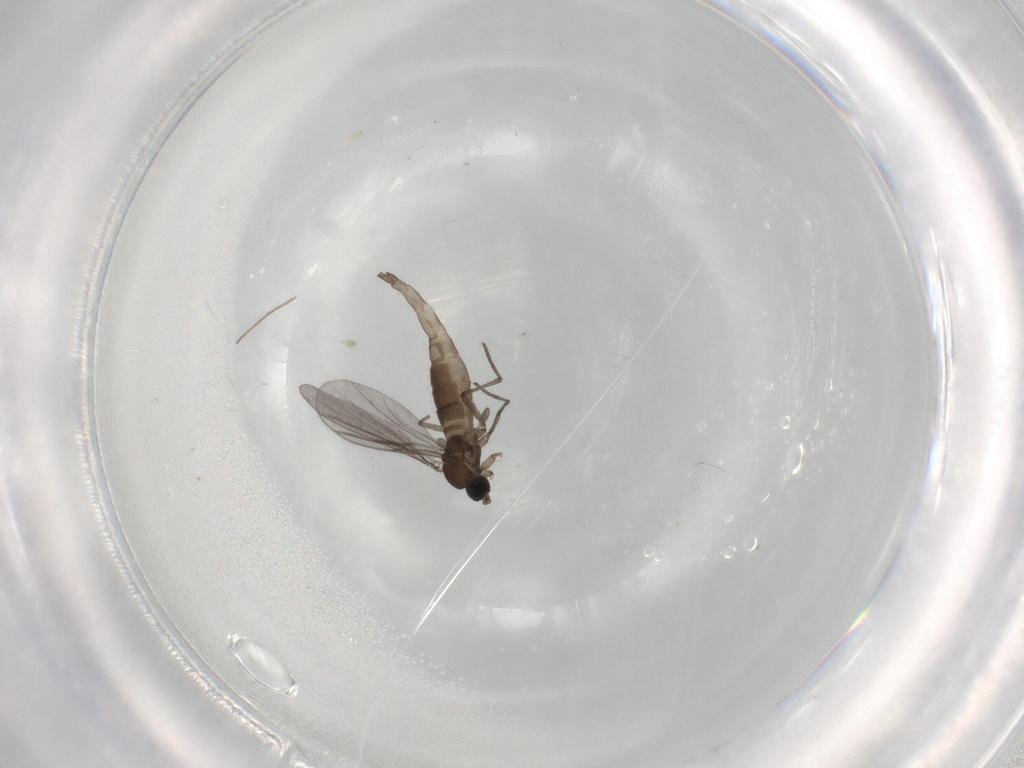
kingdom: Animalia
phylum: Arthropoda
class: Insecta
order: Diptera
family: Cecidomyiidae
